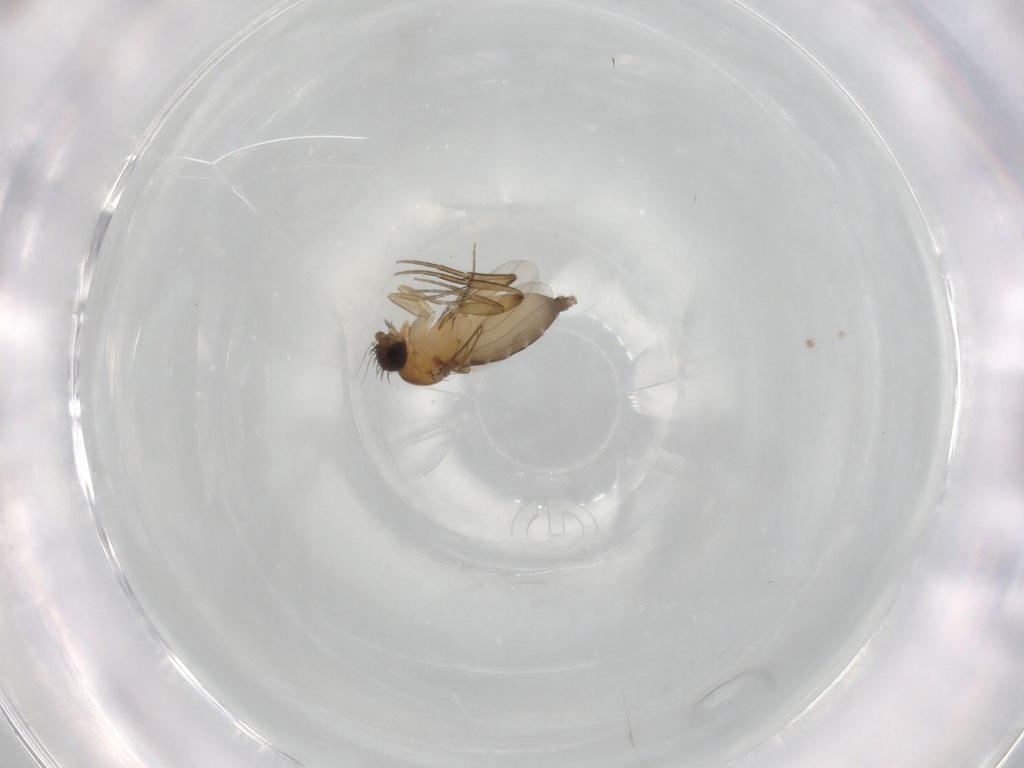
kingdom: Animalia
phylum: Arthropoda
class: Insecta
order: Diptera
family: Phoridae
